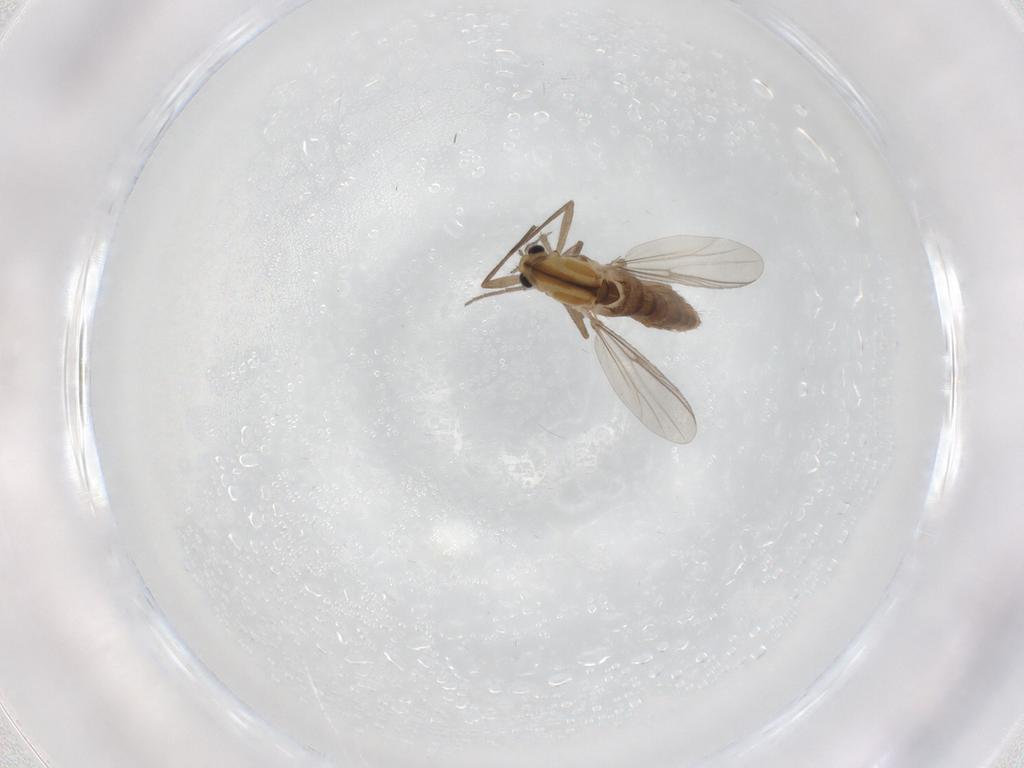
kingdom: Animalia
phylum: Arthropoda
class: Insecta
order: Diptera
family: Chironomidae
